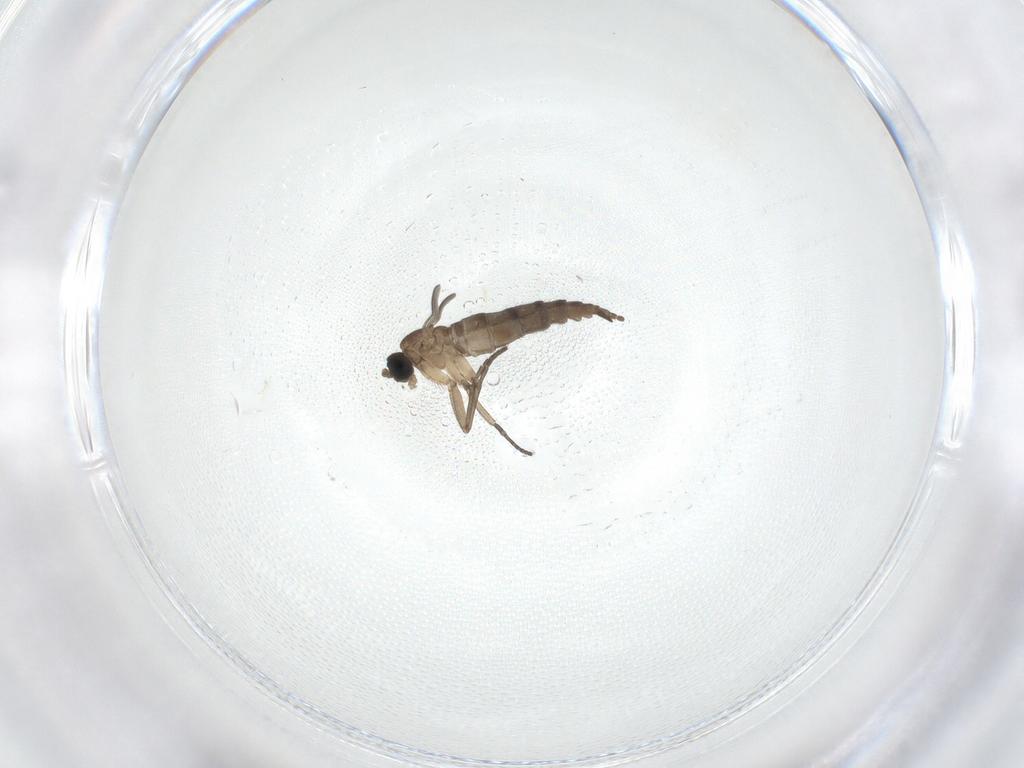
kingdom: Animalia
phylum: Arthropoda
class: Insecta
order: Diptera
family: Sciaridae
